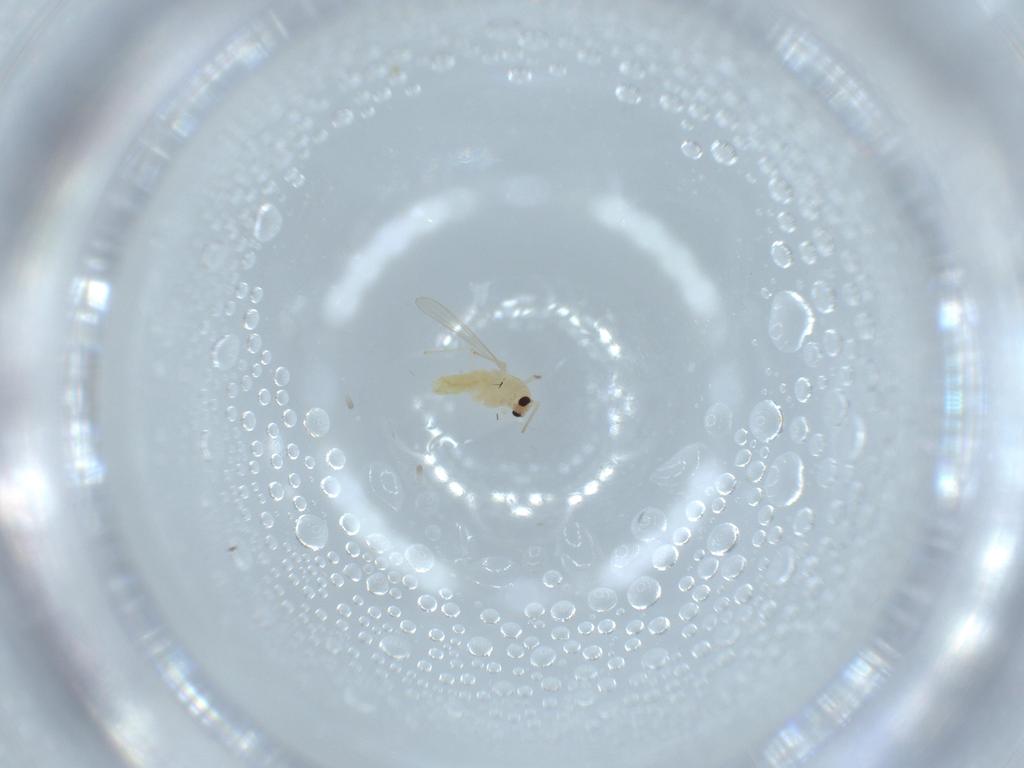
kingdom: Animalia
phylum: Arthropoda
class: Insecta
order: Diptera
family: Chironomidae
